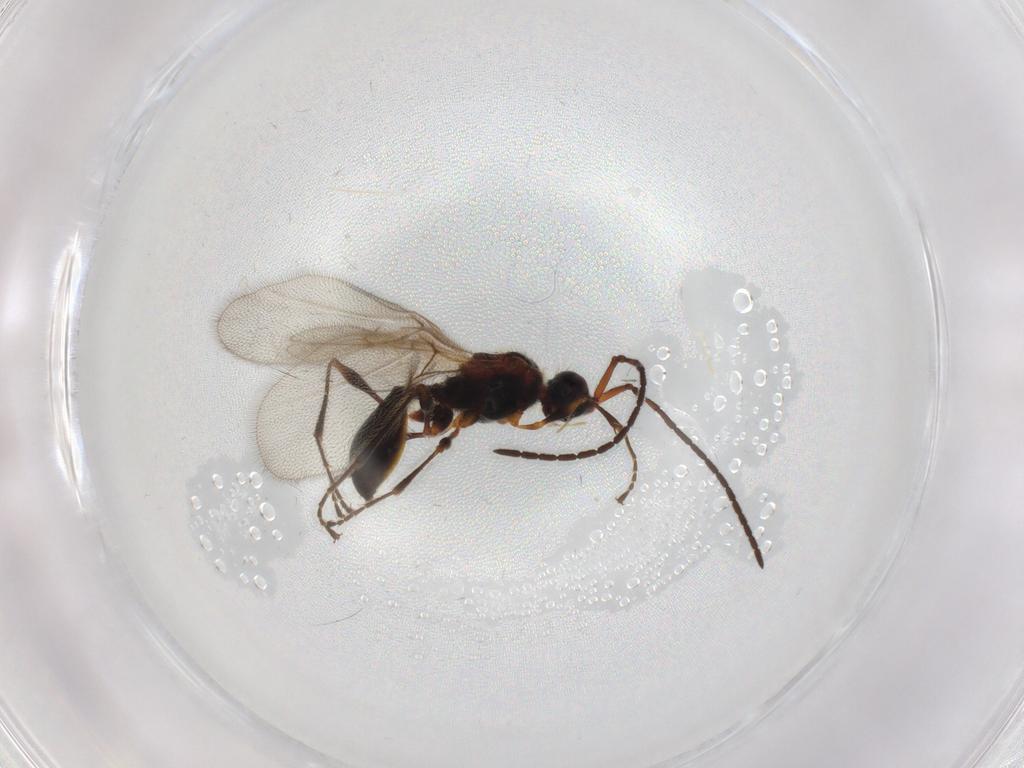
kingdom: Animalia
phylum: Arthropoda
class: Insecta
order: Hymenoptera
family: Diapriidae
